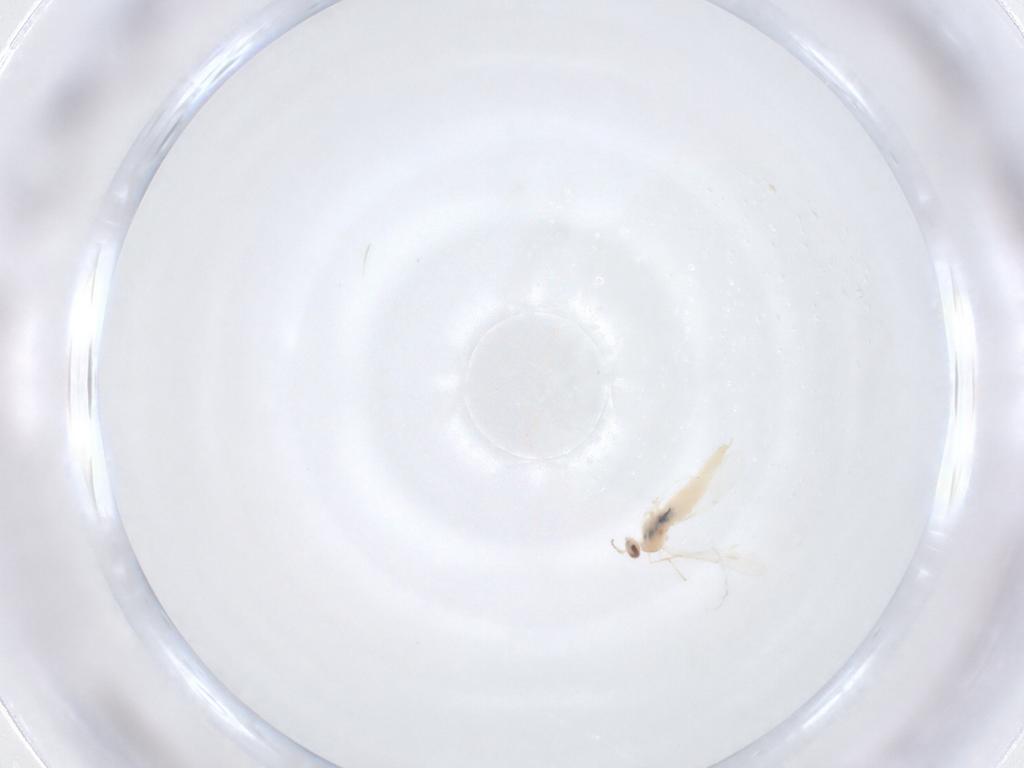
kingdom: Animalia
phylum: Arthropoda
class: Insecta
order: Diptera
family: Cecidomyiidae
